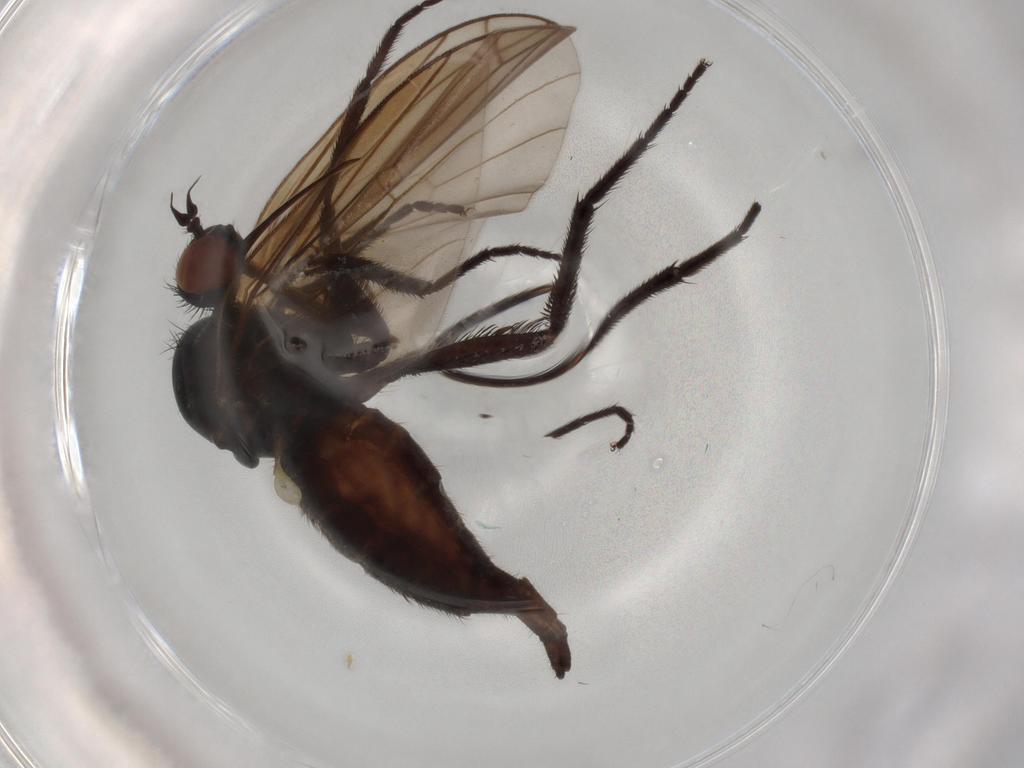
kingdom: Animalia
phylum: Arthropoda
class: Insecta
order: Diptera
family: Empididae
